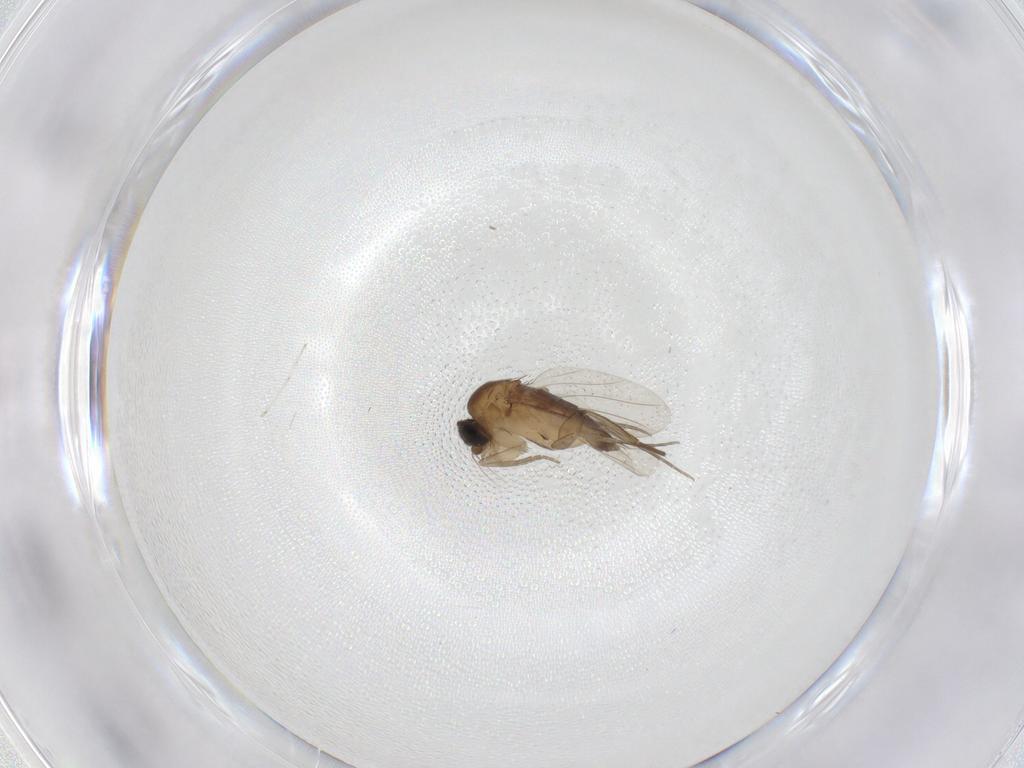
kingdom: Animalia
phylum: Arthropoda
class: Insecta
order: Diptera
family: Phoridae
